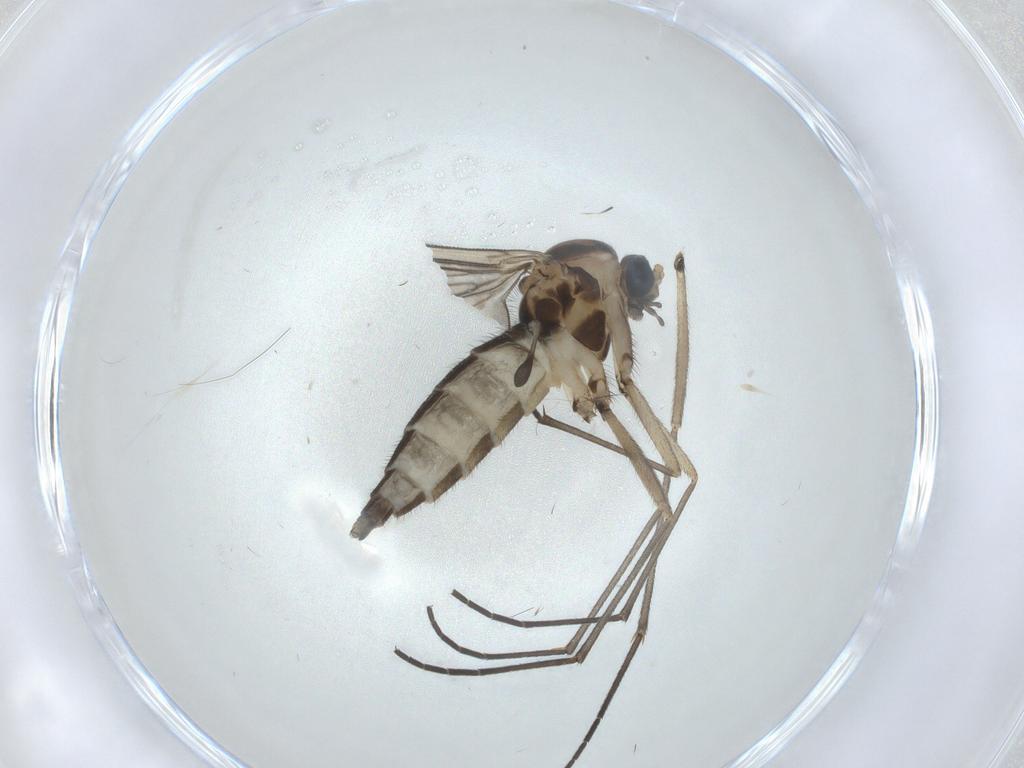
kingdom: Animalia
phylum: Arthropoda
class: Insecta
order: Diptera
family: Sciaridae
